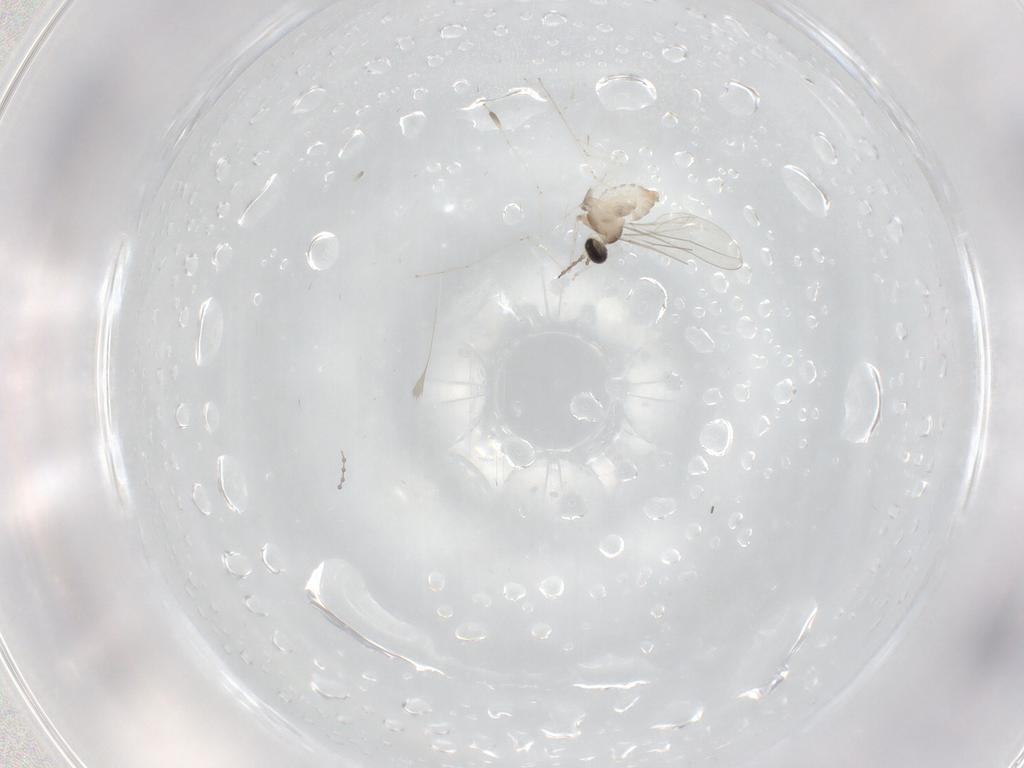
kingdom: Animalia
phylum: Arthropoda
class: Insecta
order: Diptera
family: Cecidomyiidae
